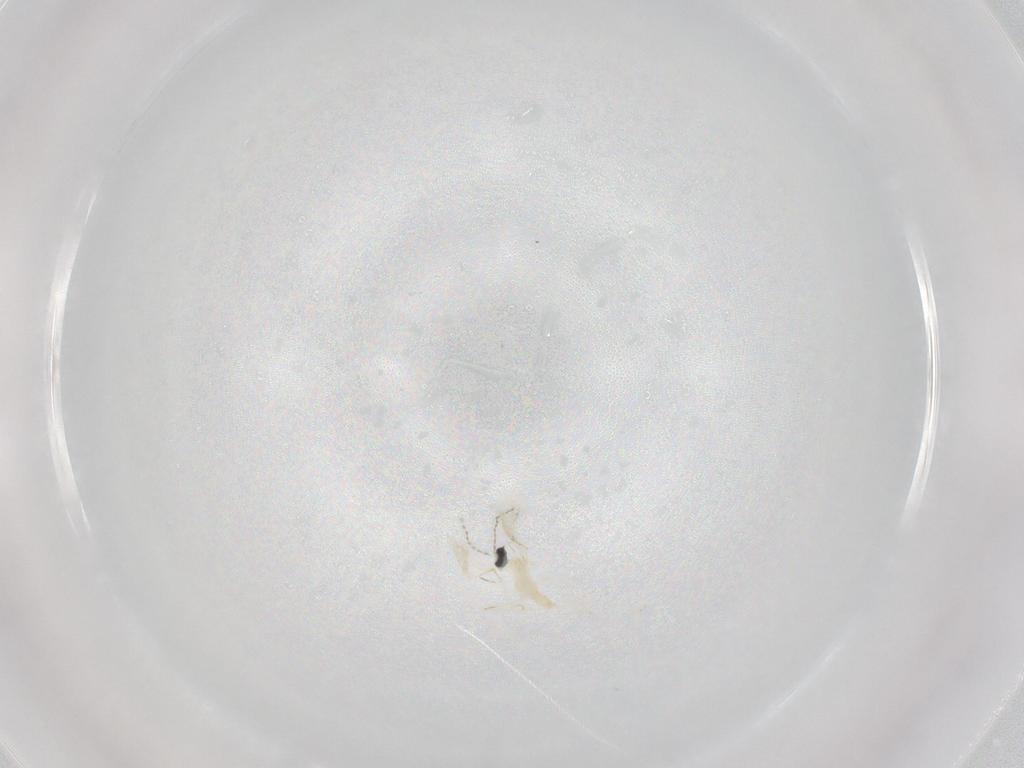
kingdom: Animalia
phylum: Arthropoda
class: Insecta
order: Diptera
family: Cecidomyiidae
